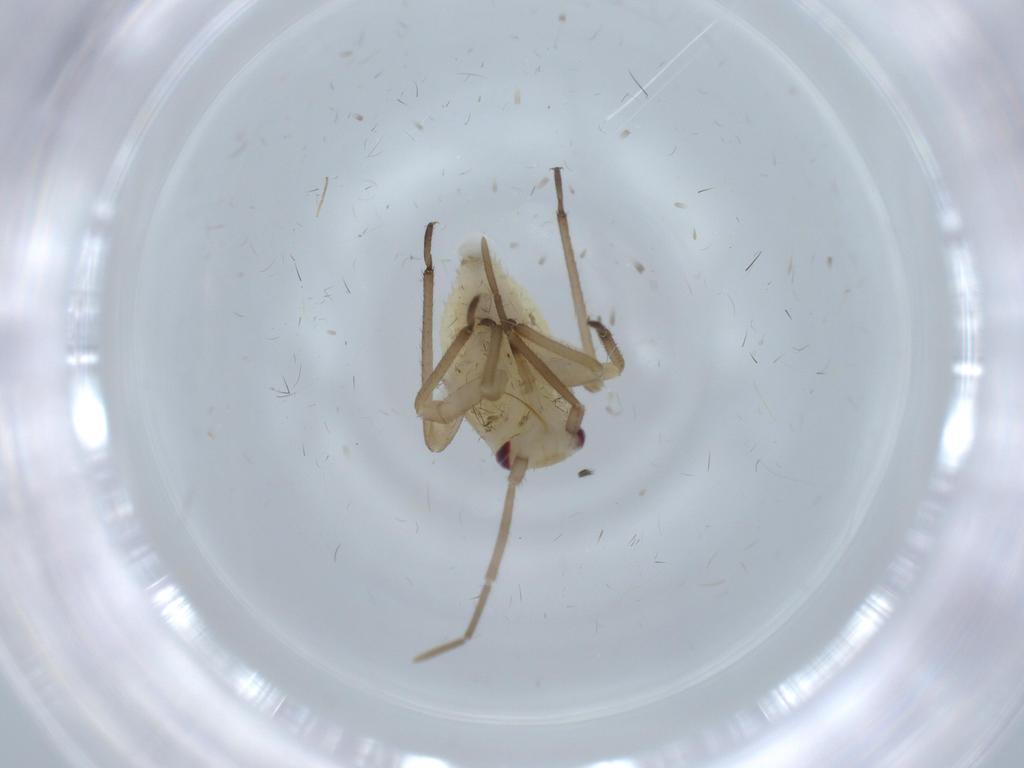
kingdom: Animalia
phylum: Arthropoda
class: Insecta
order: Hemiptera
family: Miridae
